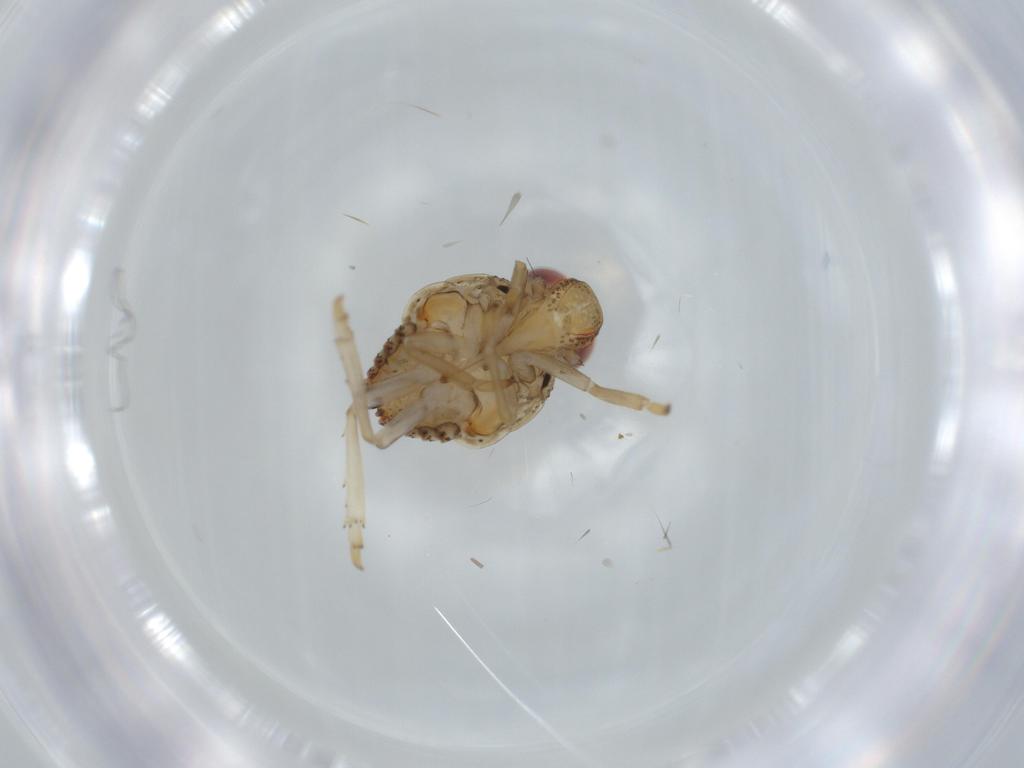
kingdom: Animalia
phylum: Arthropoda
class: Insecta
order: Hemiptera
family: Issidae
